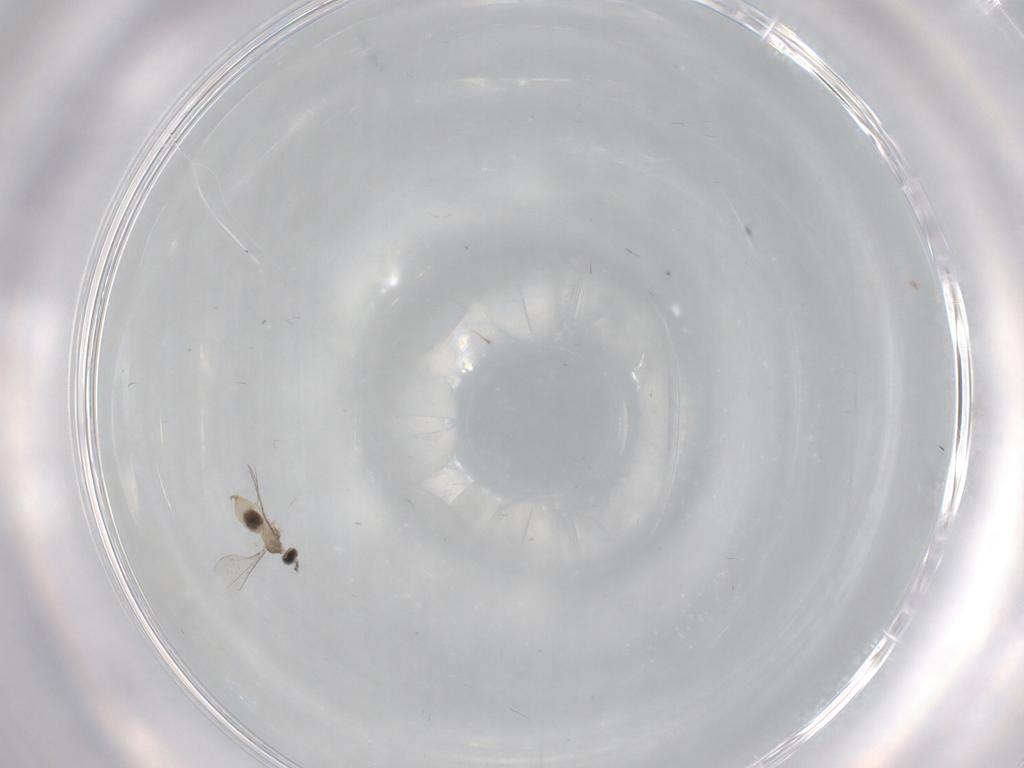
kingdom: Animalia
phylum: Arthropoda
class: Insecta
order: Diptera
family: Cecidomyiidae
